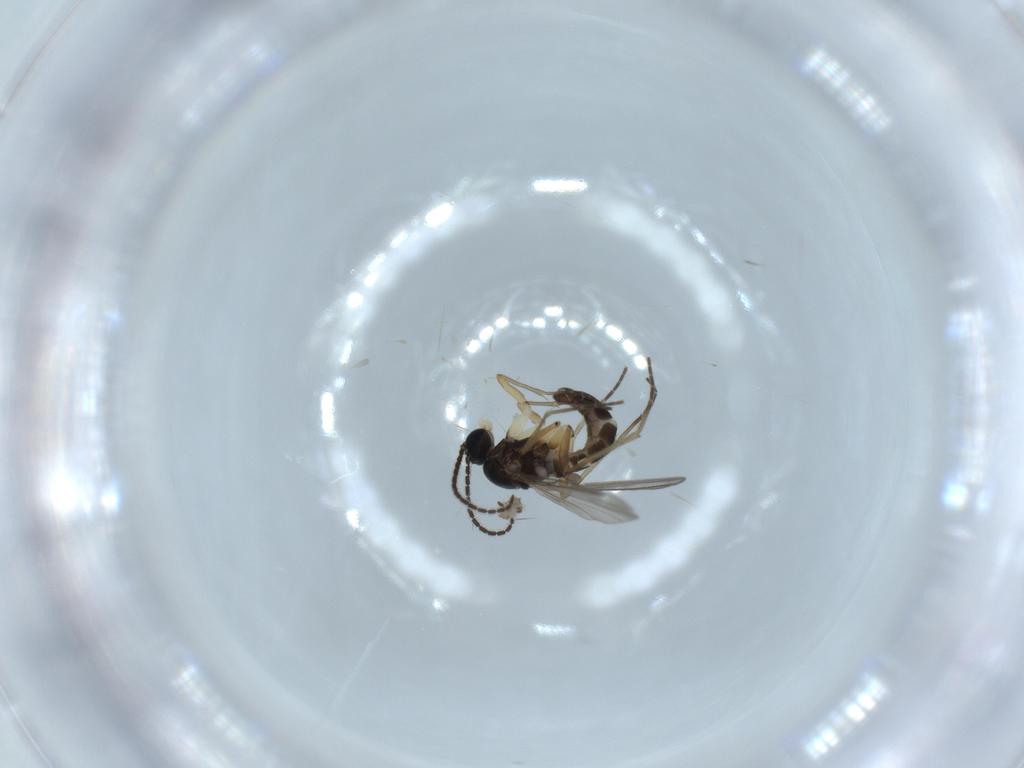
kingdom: Animalia
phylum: Arthropoda
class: Insecta
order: Diptera
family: Sciaridae
